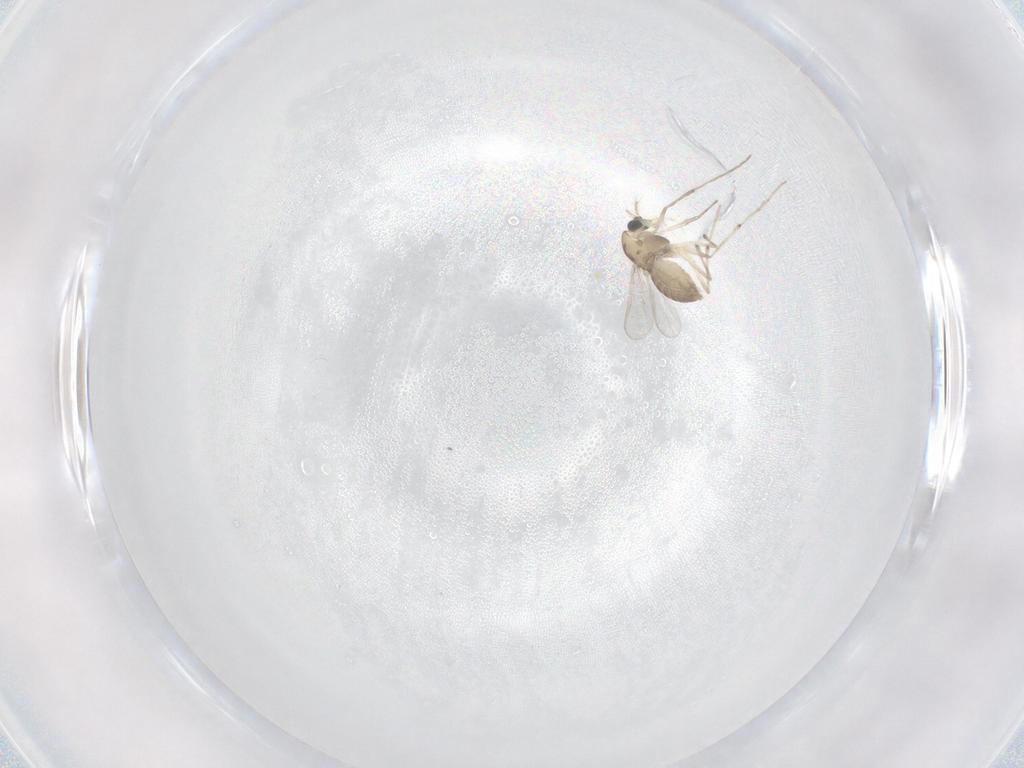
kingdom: Animalia
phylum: Arthropoda
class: Insecta
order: Diptera
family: Chironomidae
